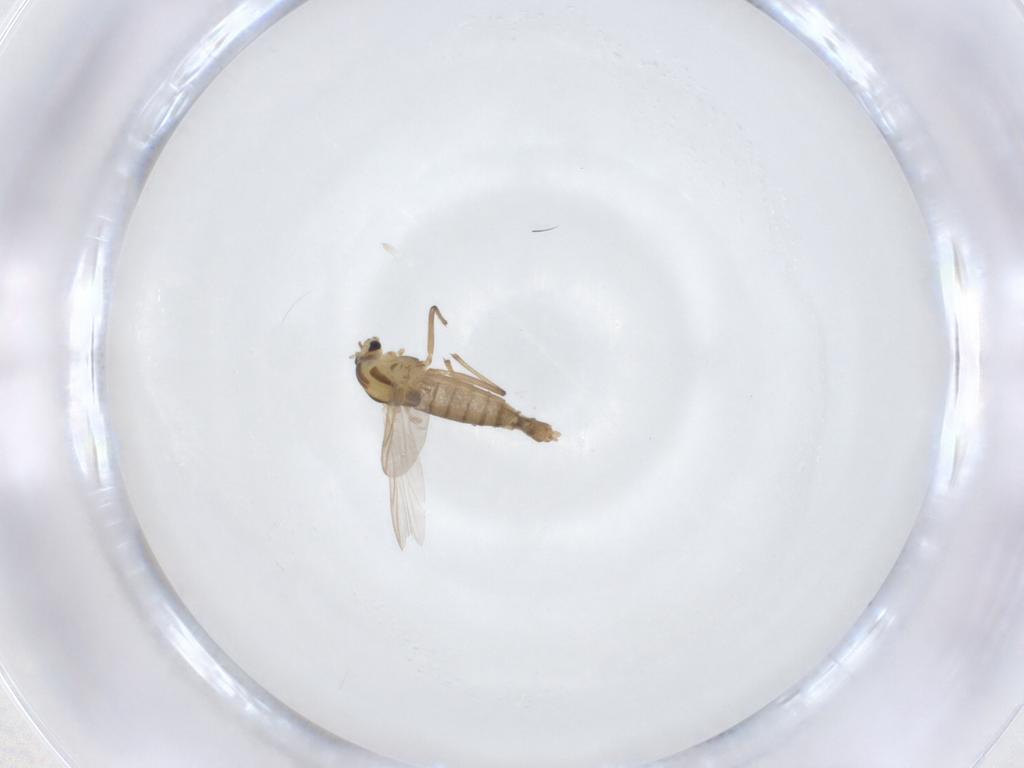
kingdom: Animalia
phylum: Arthropoda
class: Insecta
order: Diptera
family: Chironomidae
